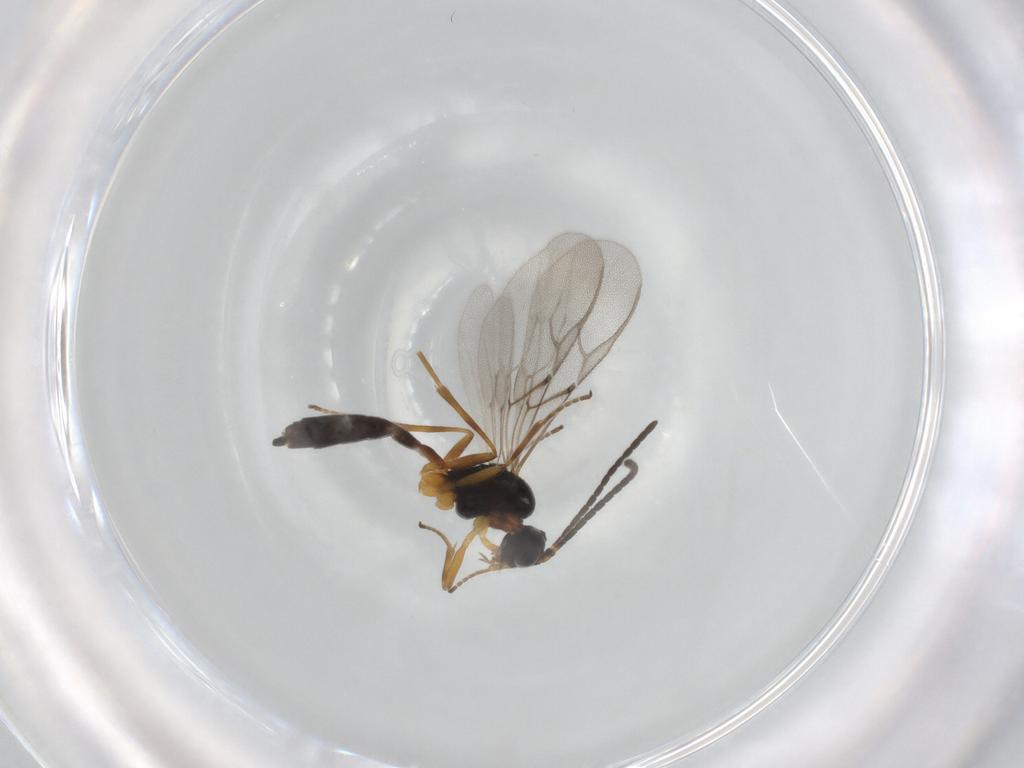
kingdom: Animalia
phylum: Arthropoda
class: Insecta
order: Hymenoptera
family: Braconidae
